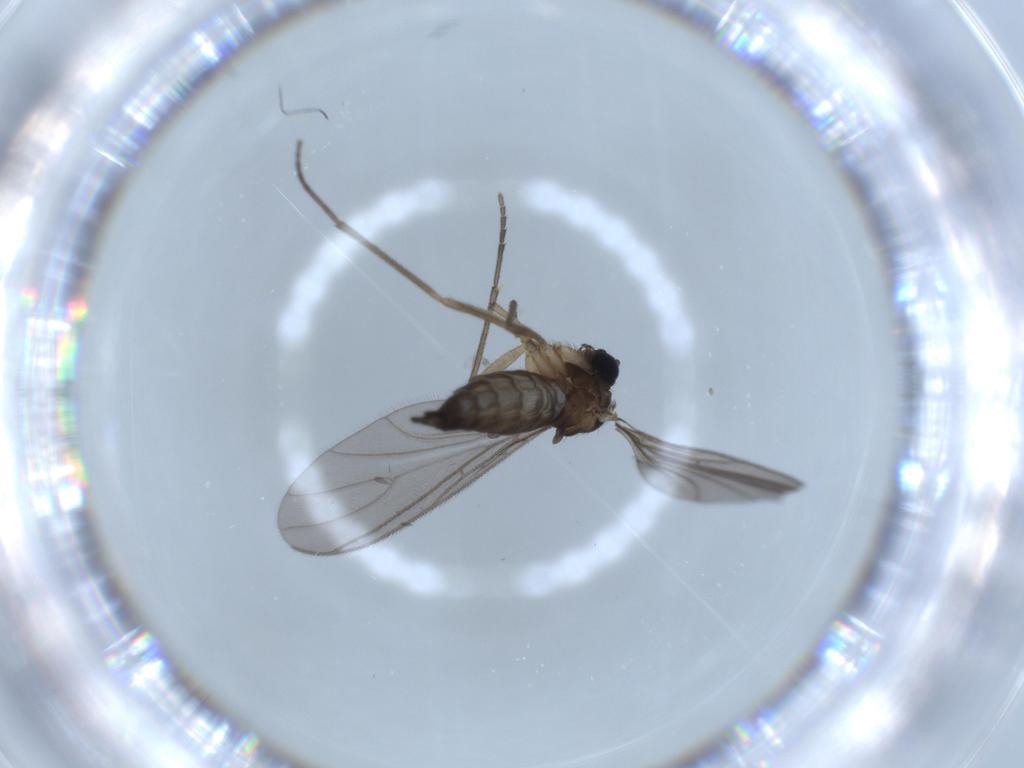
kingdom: Animalia
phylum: Arthropoda
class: Insecta
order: Diptera
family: Sciaridae
